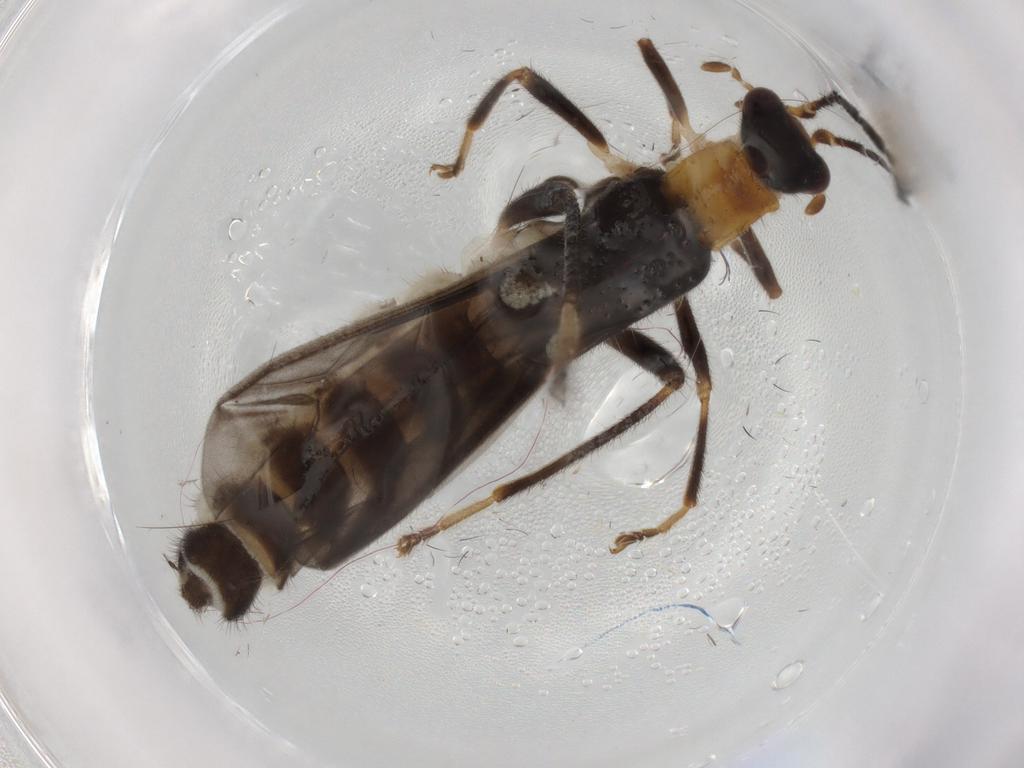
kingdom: Animalia
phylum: Arthropoda
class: Insecta
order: Coleoptera
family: Cantharidae
